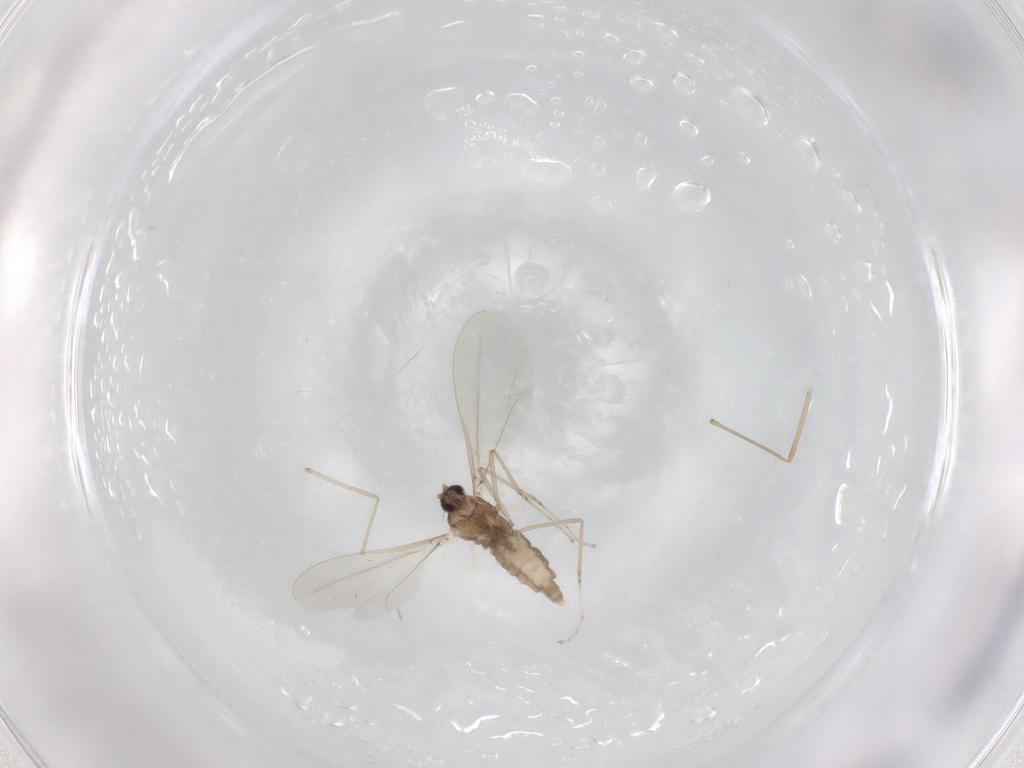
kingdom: Animalia
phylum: Arthropoda
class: Insecta
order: Diptera
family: Cecidomyiidae
